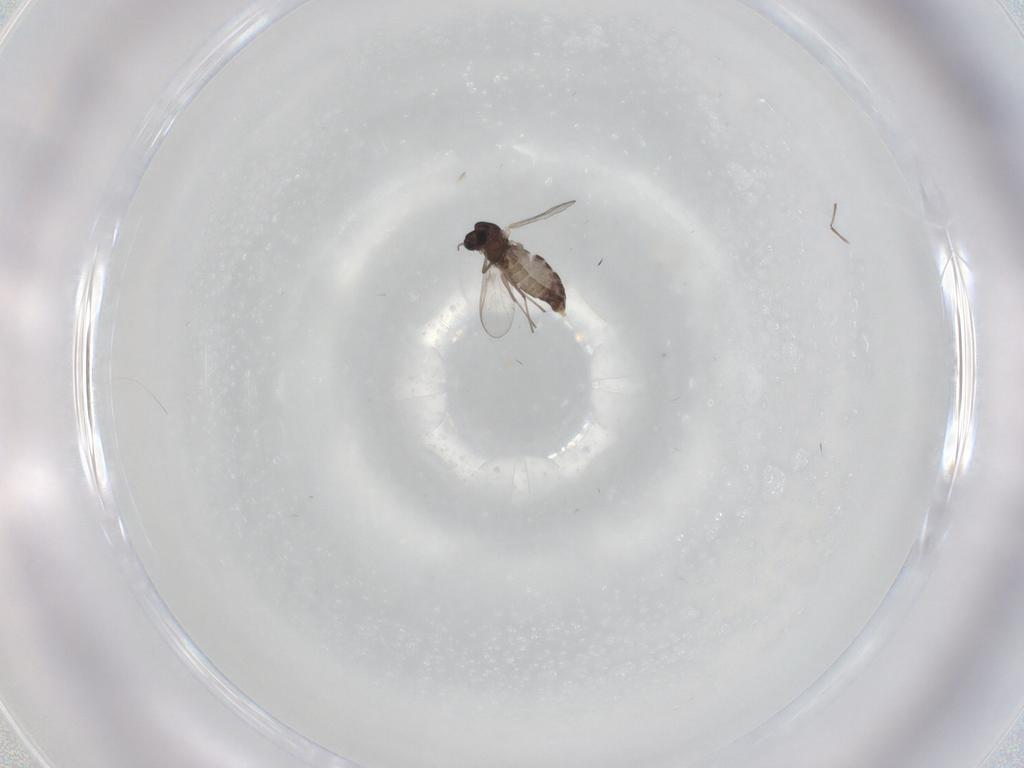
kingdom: Animalia
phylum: Arthropoda
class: Insecta
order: Diptera
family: Chironomidae
